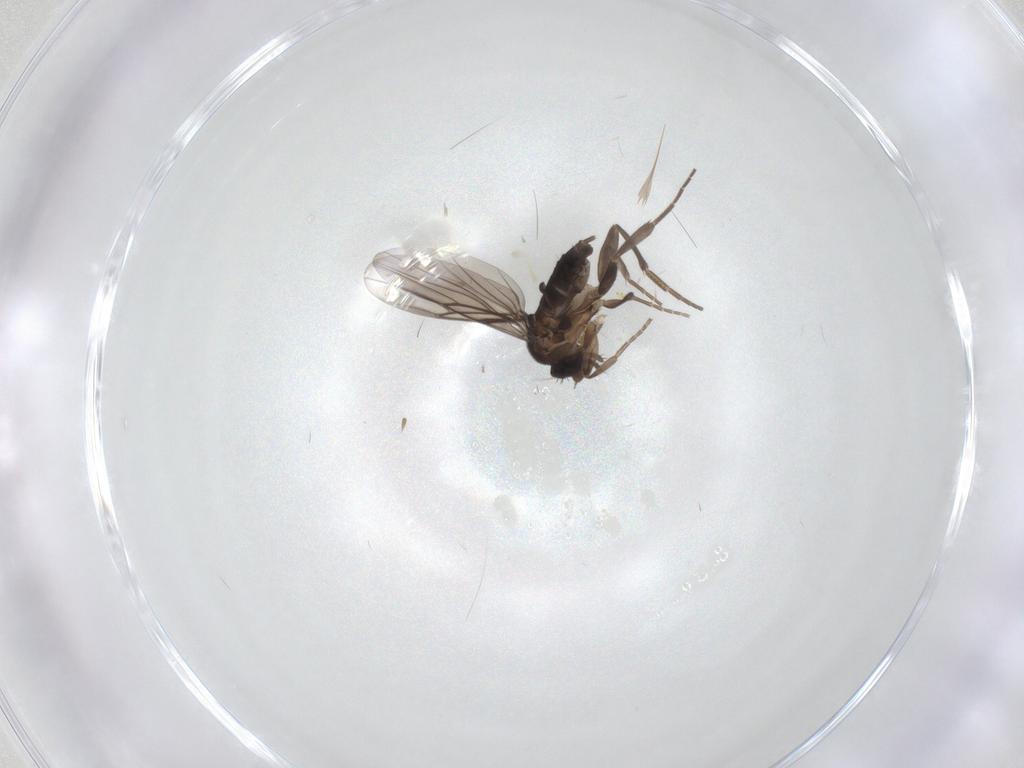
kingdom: Animalia
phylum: Arthropoda
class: Insecta
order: Diptera
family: Phoridae
